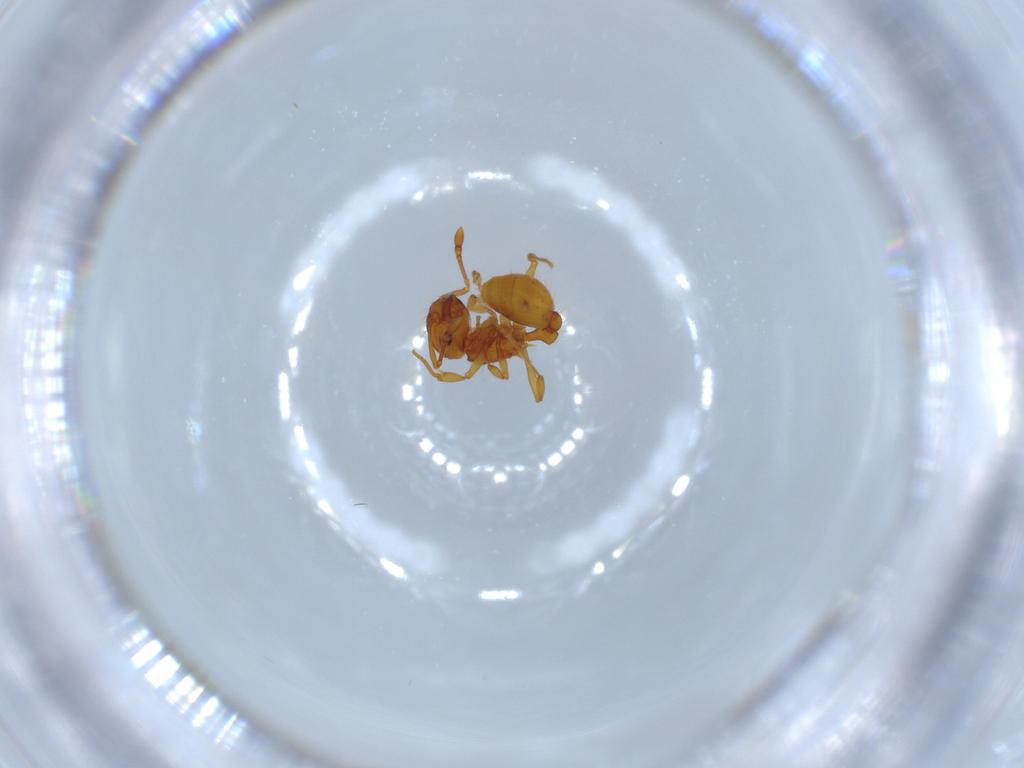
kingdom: Animalia
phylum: Arthropoda
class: Insecta
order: Hymenoptera
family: Formicidae
